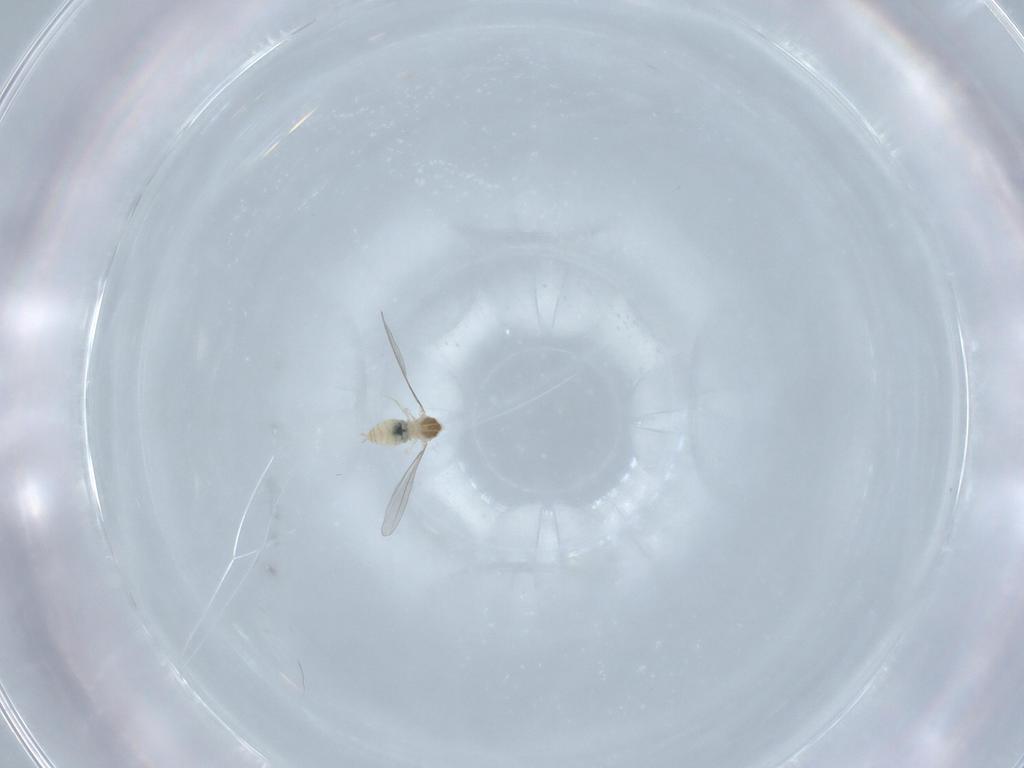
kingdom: Animalia
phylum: Arthropoda
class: Insecta
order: Diptera
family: Cecidomyiidae
